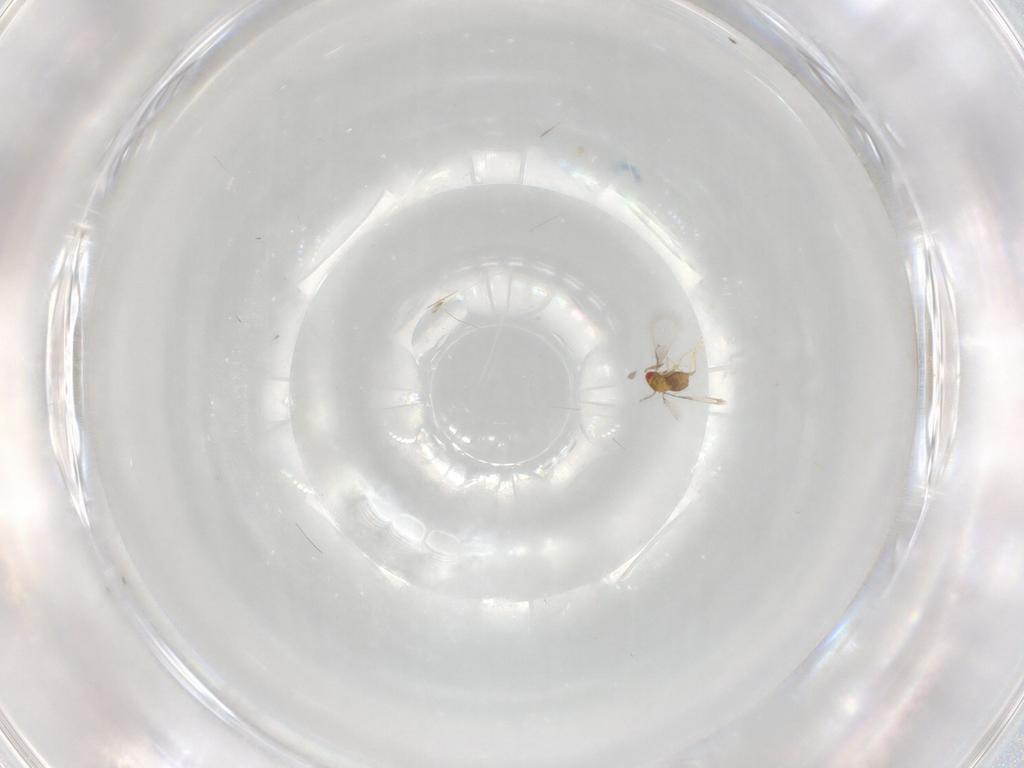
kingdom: Animalia
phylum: Arthropoda
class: Insecta
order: Hymenoptera
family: Trichogrammatidae
